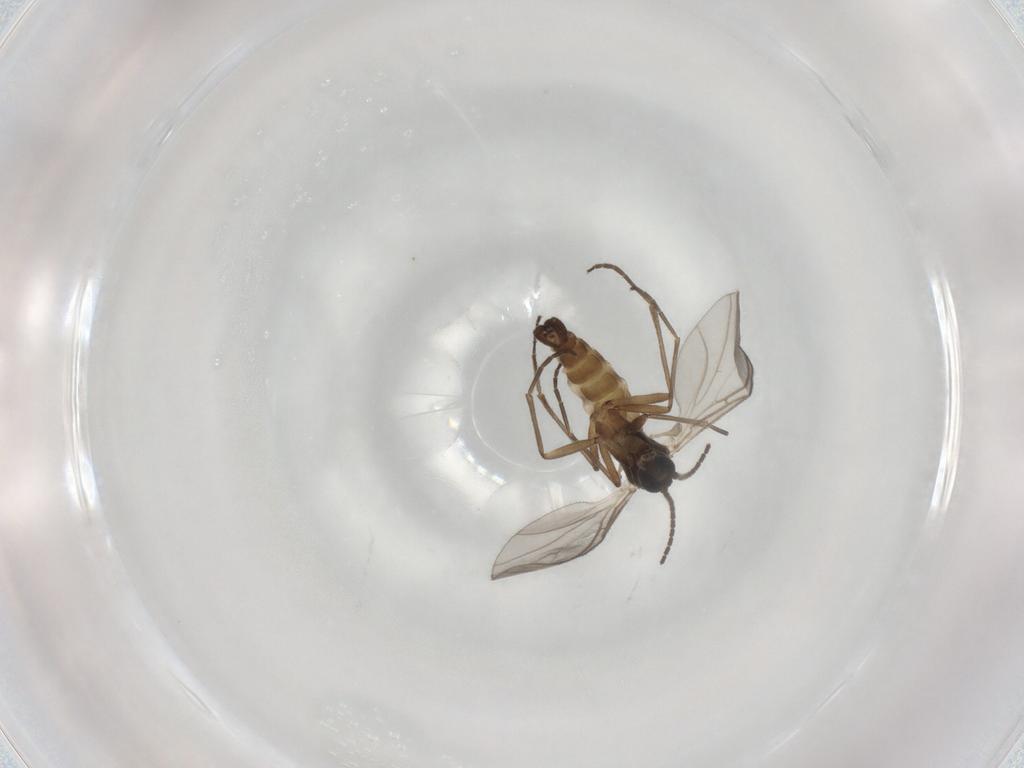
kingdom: Animalia
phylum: Arthropoda
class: Insecta
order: Diptera
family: Sciaridae
